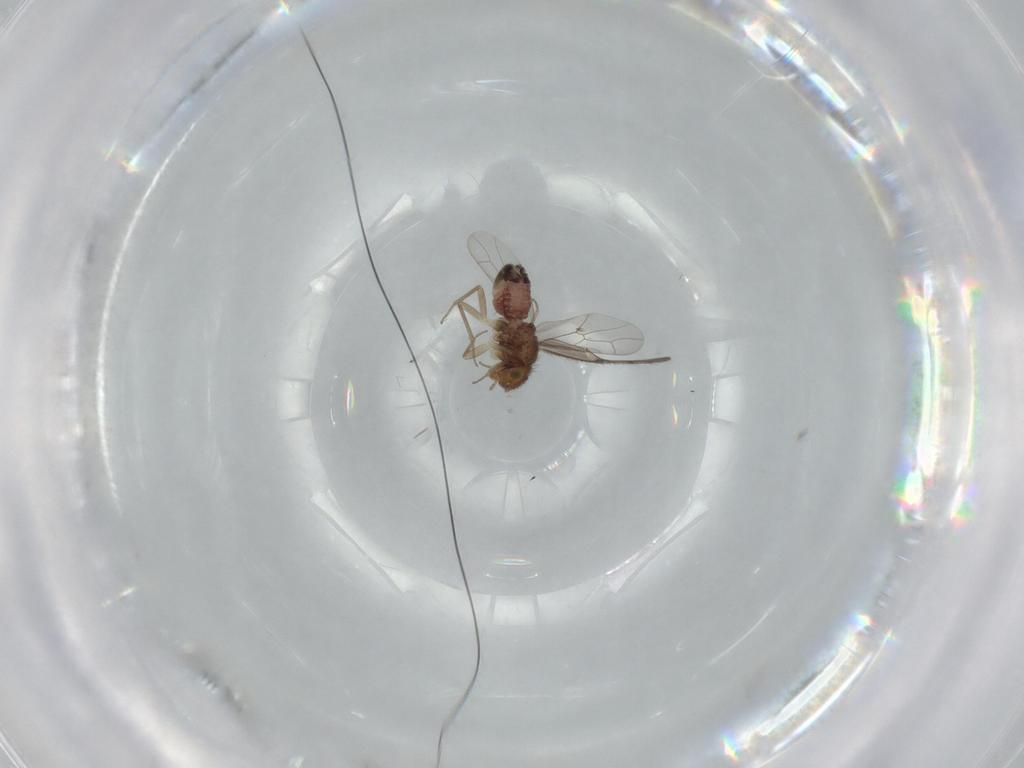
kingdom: Animalia
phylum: Arthropoda
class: Insecta
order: Psocodea
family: Ectopsocidae
